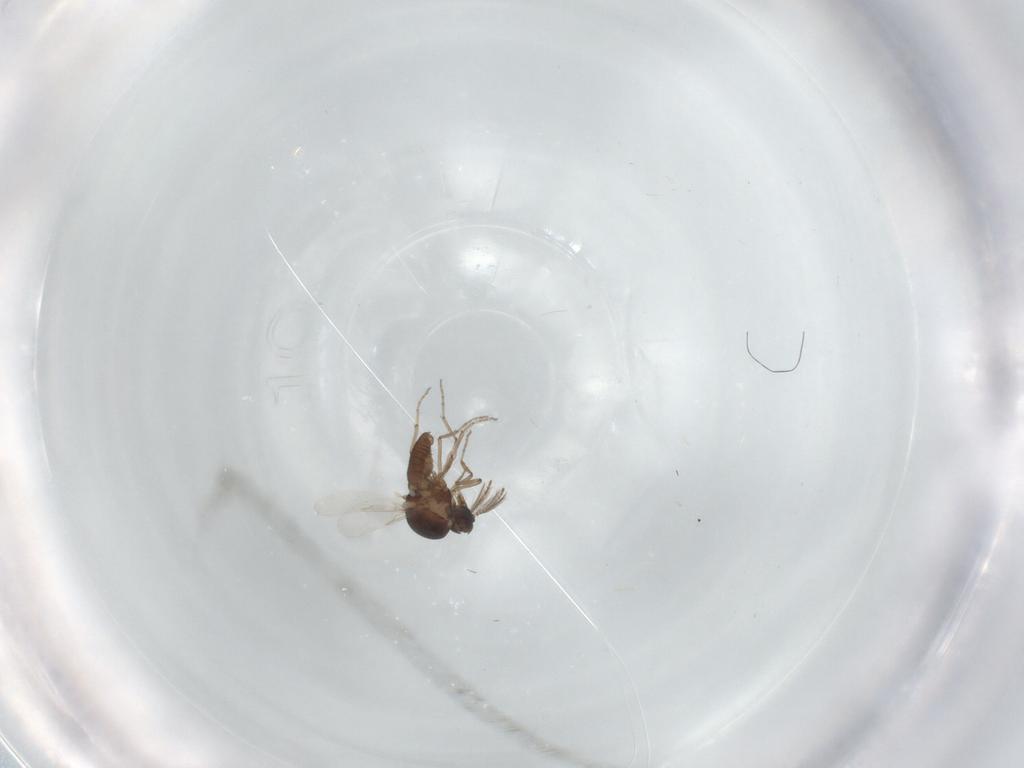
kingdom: Animalia
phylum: Arthropoda
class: Insecta
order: Diptera
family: Ceratopogonidae
